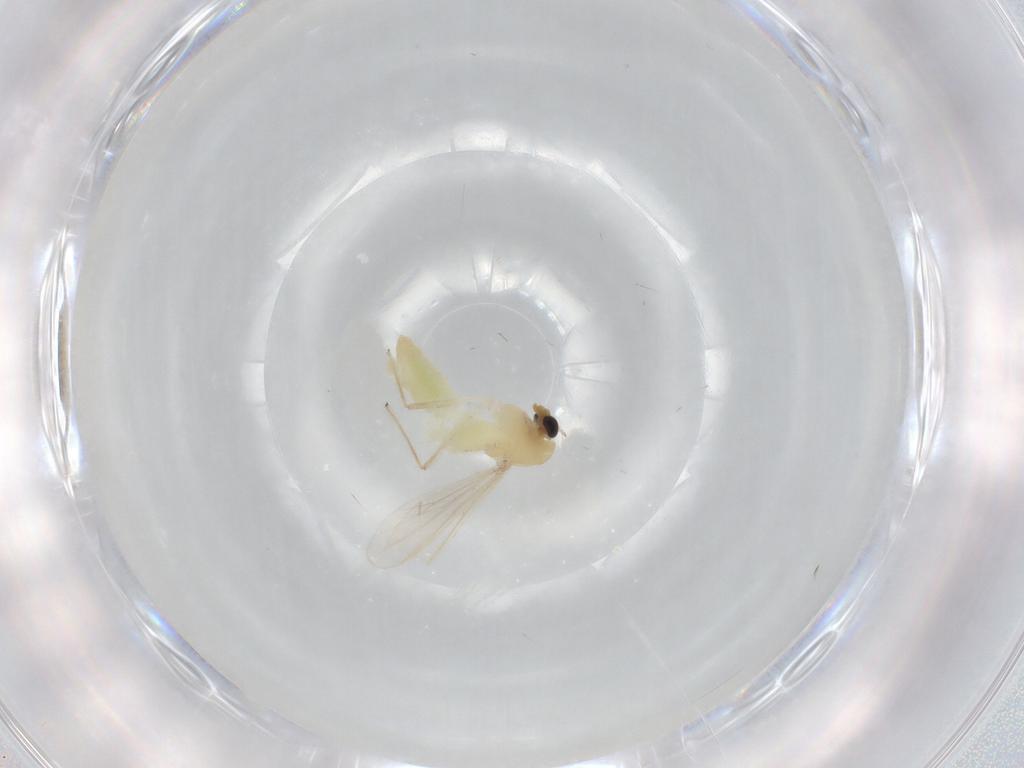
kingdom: Animalia
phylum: Arthropoda
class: Insecta
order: Diptera
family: Chironomidae
